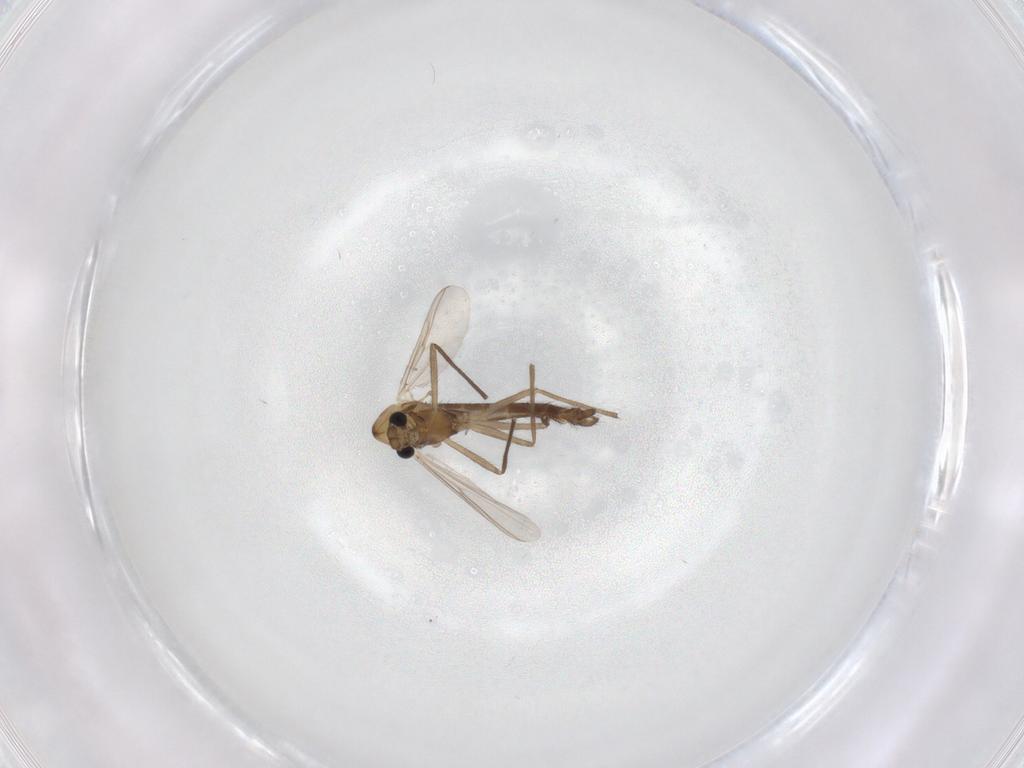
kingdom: Animalia
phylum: Arthropoda
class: Insecta
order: Diptera
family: Chironomidae
